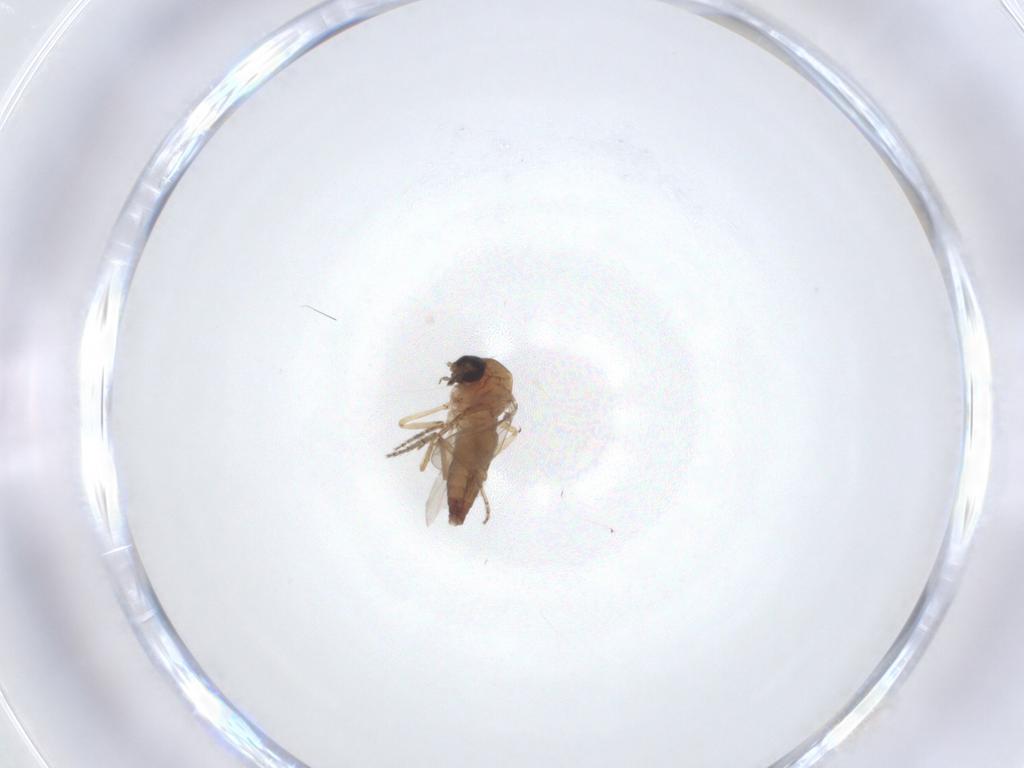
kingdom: Animalia
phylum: Arthropoda
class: Insecta
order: Diptera
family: Ceratopogonidae
